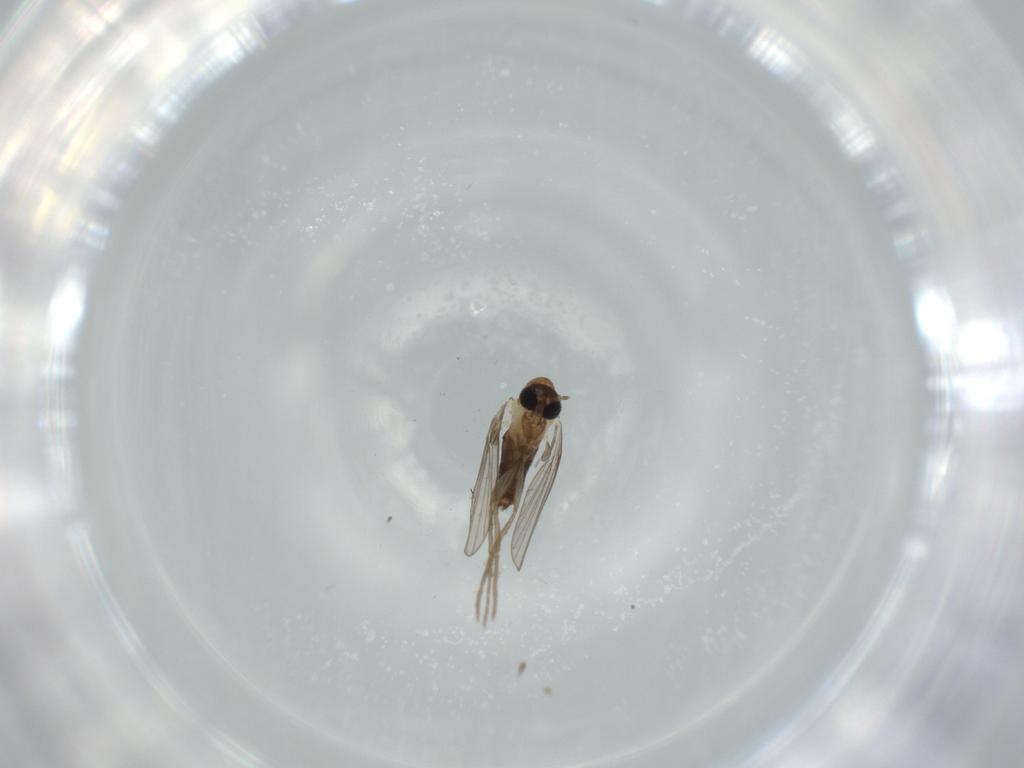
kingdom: Animalia
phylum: Arthropoda
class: Insecta
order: Diptera
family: Psychodidae
